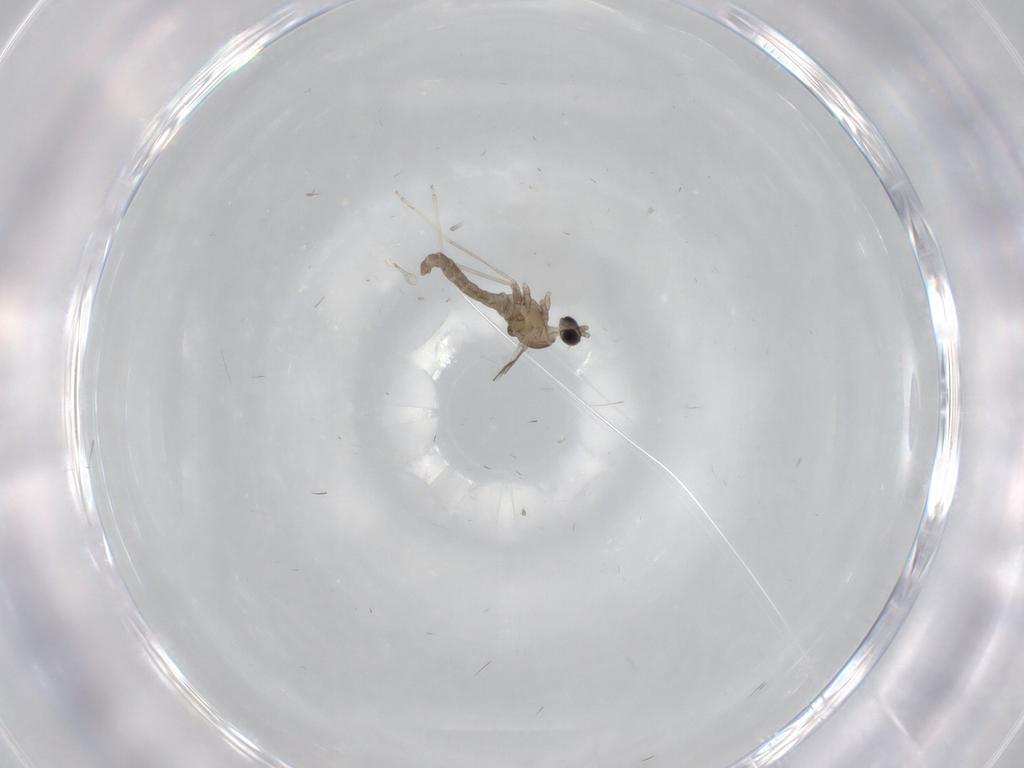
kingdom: Animalia
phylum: Arthropoda
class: Insecta
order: Diptera
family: Cecidomyiidae
